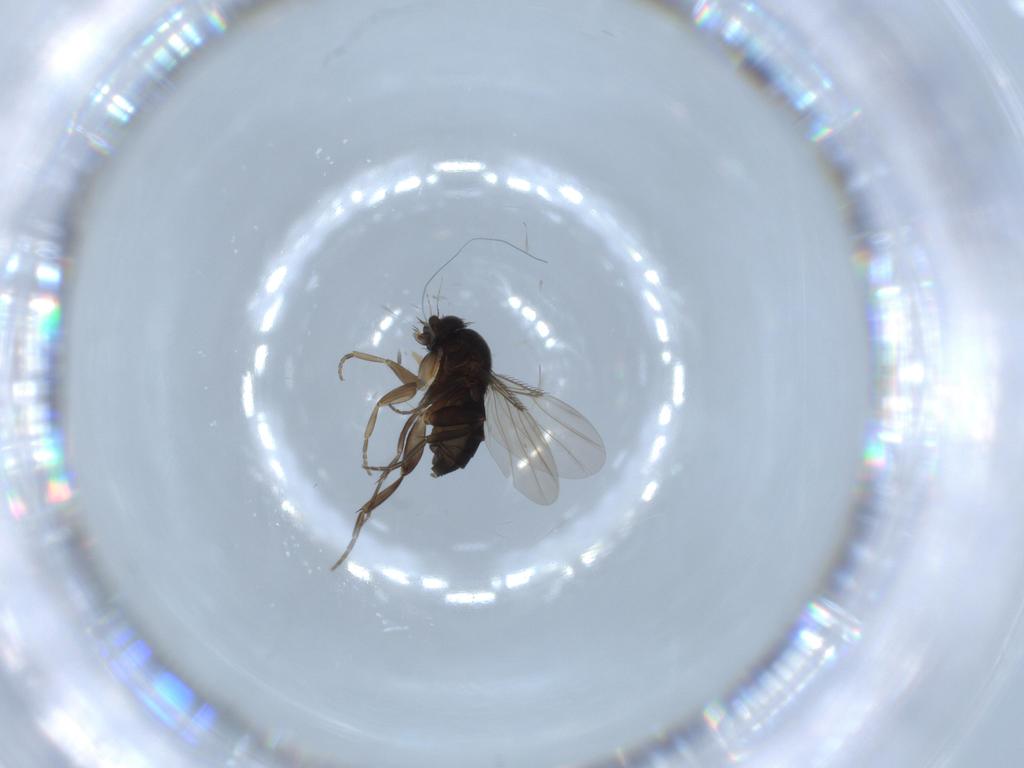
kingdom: Animalia
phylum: Arthropoda
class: Insecta
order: Diptera
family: Phoridae
